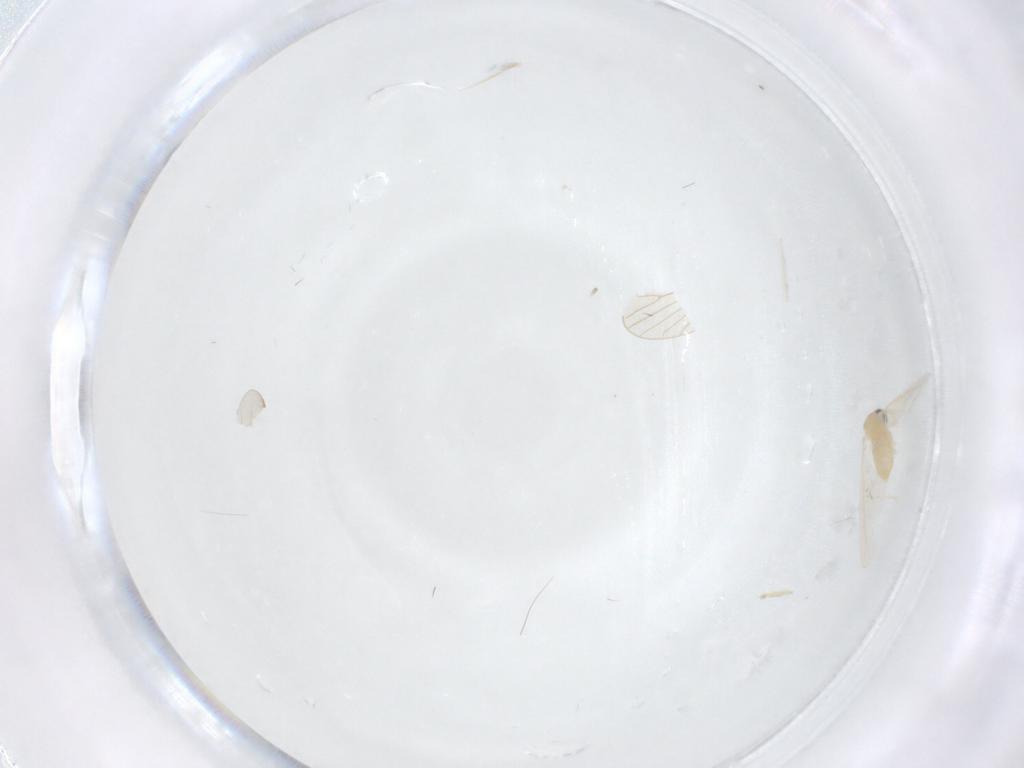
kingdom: Animalia
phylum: Arthropoda
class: Insecta
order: Diptera
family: Cecidomyiidae
